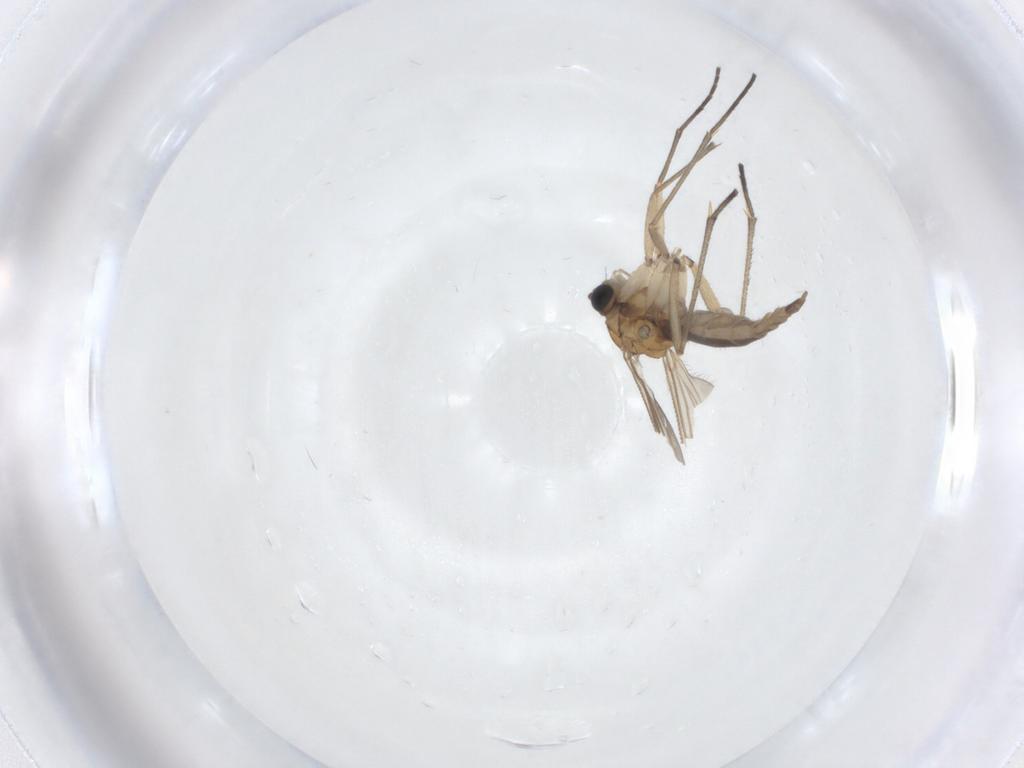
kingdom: Animalia
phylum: Arthropoda
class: Insecta
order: Diptera
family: Sciaridae
